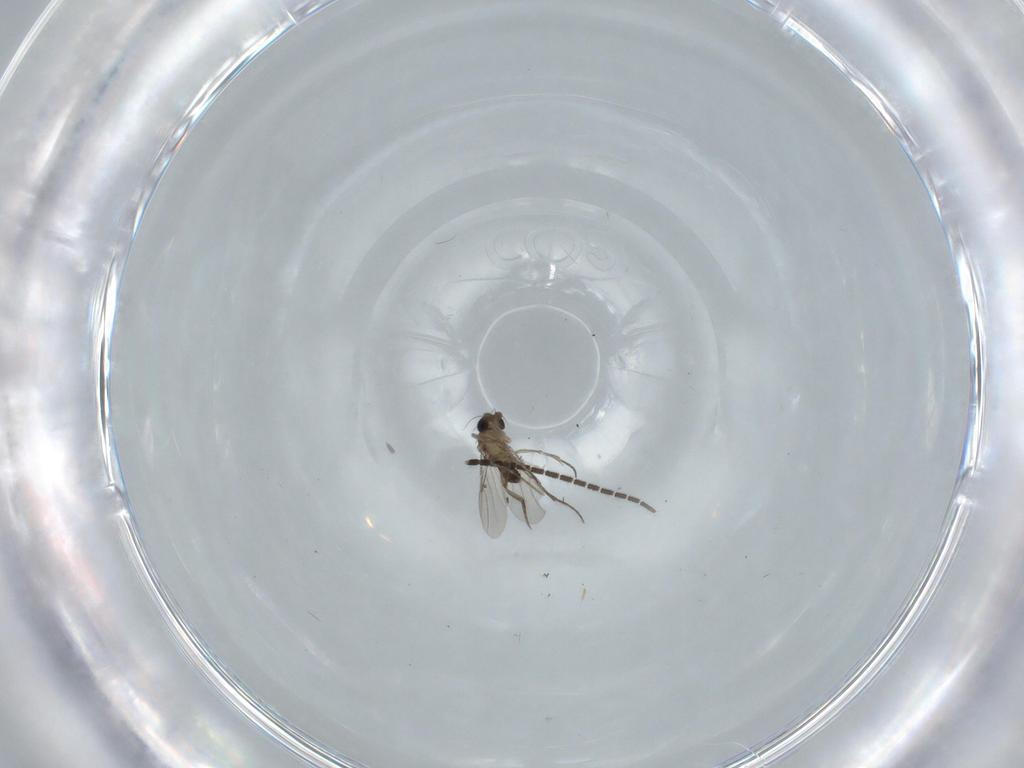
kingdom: Animalia
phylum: Arthropoda
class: Insecta
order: Diptera
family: Phoridae
